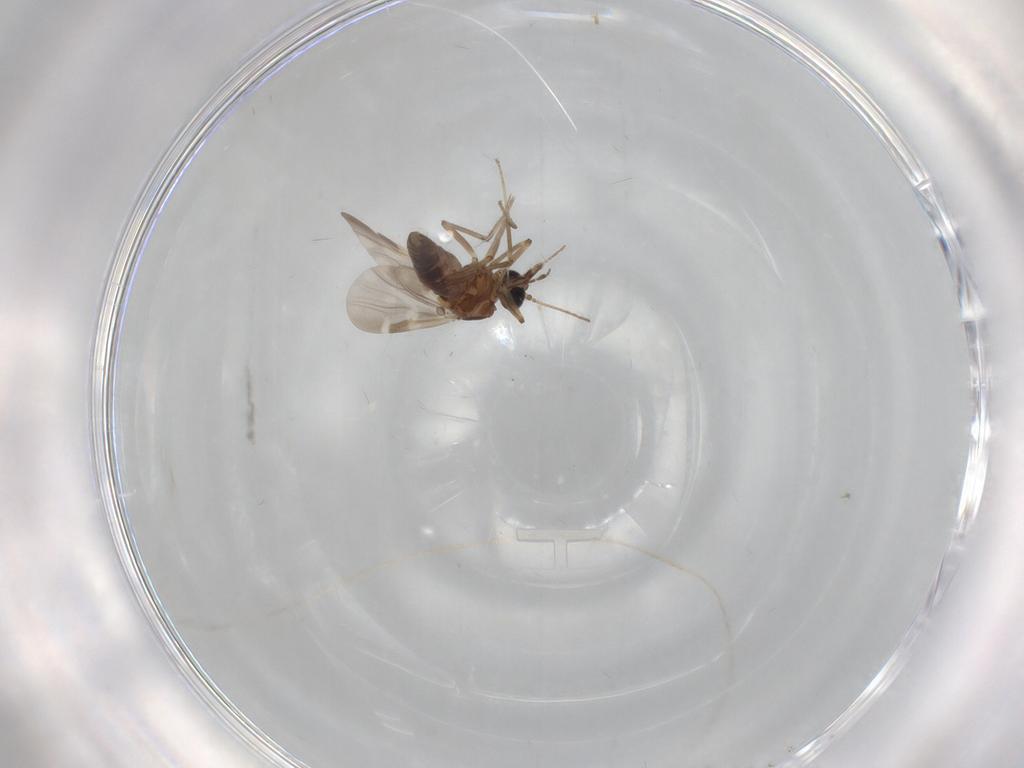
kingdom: Animalia
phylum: Arthropoda
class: Insecta
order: Diptera
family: Ceratopogonidae
